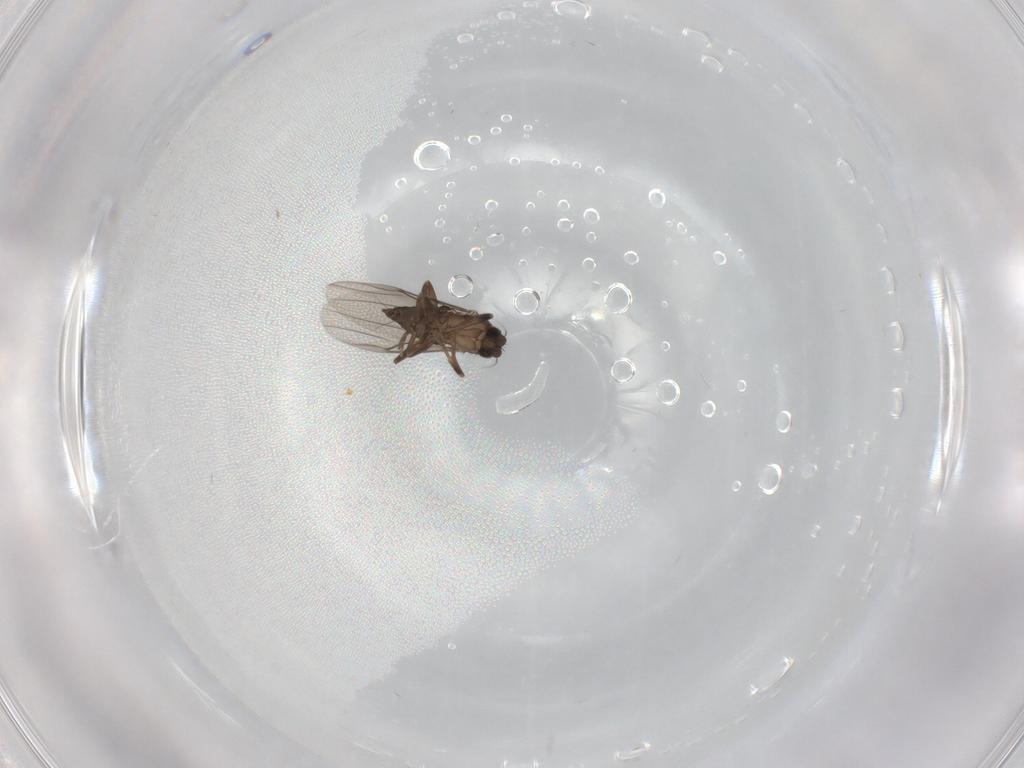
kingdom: Animalia
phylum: Arthropoda
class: Insecta
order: Diptera
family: Phoridae
